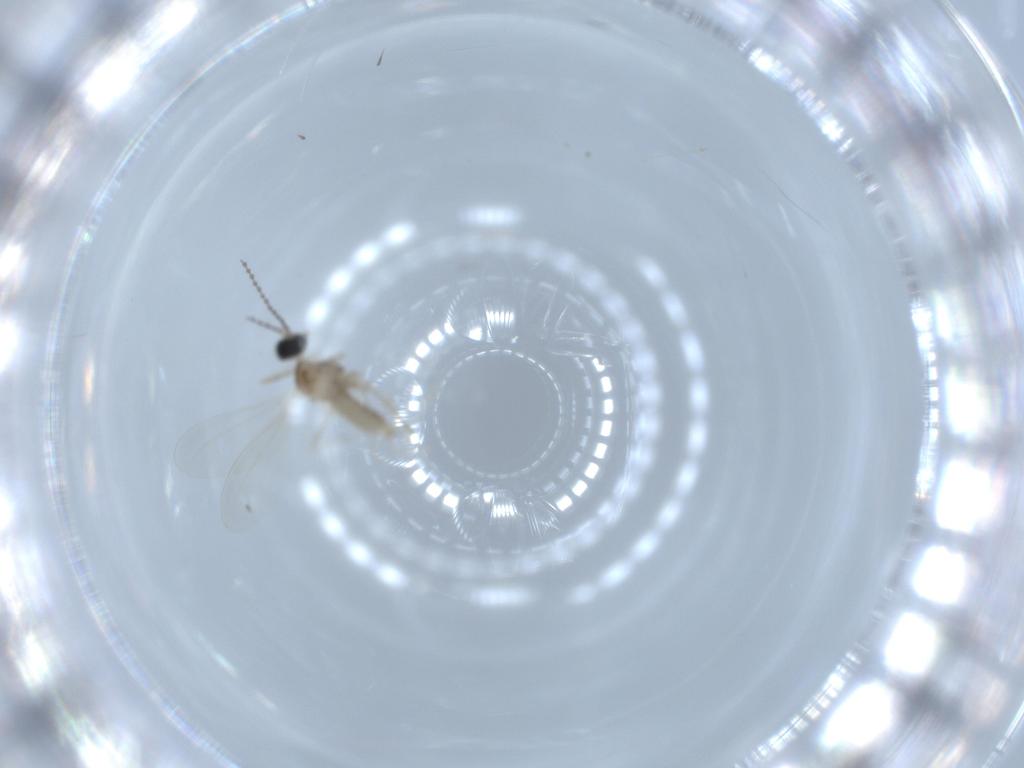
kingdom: Animalia
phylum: Arthropoda
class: Insecta
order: Diptera
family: Cecidomyiidae
